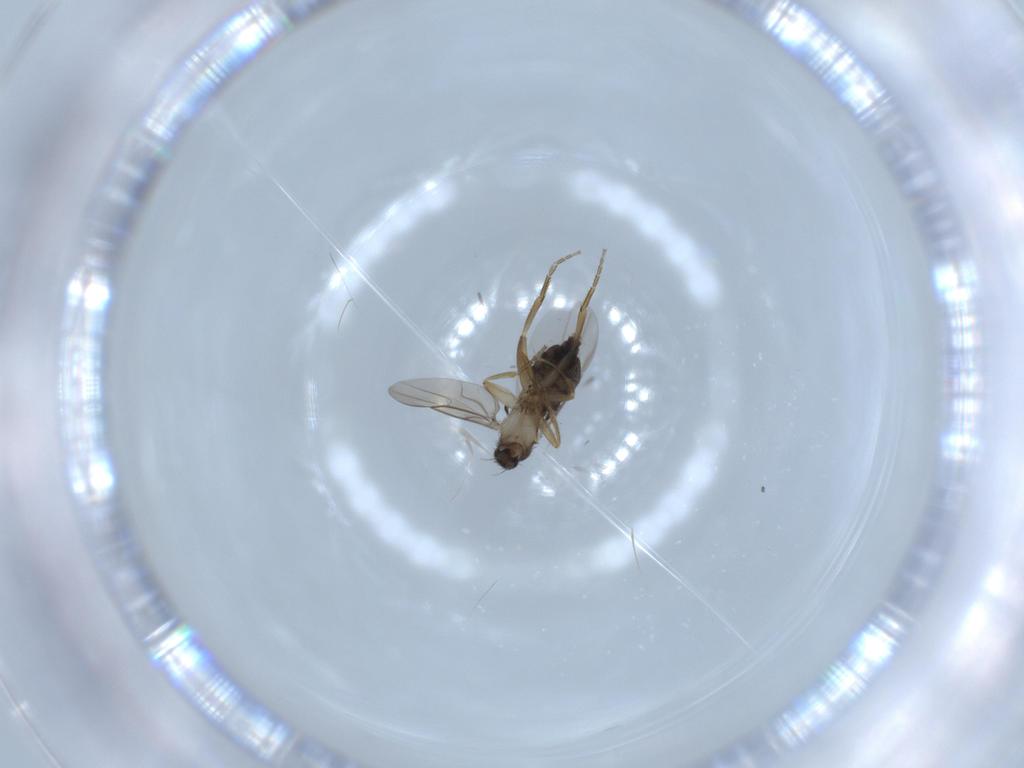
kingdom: Animalia
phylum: Arthropoda
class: Insecta
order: Diptera
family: Phoridae
